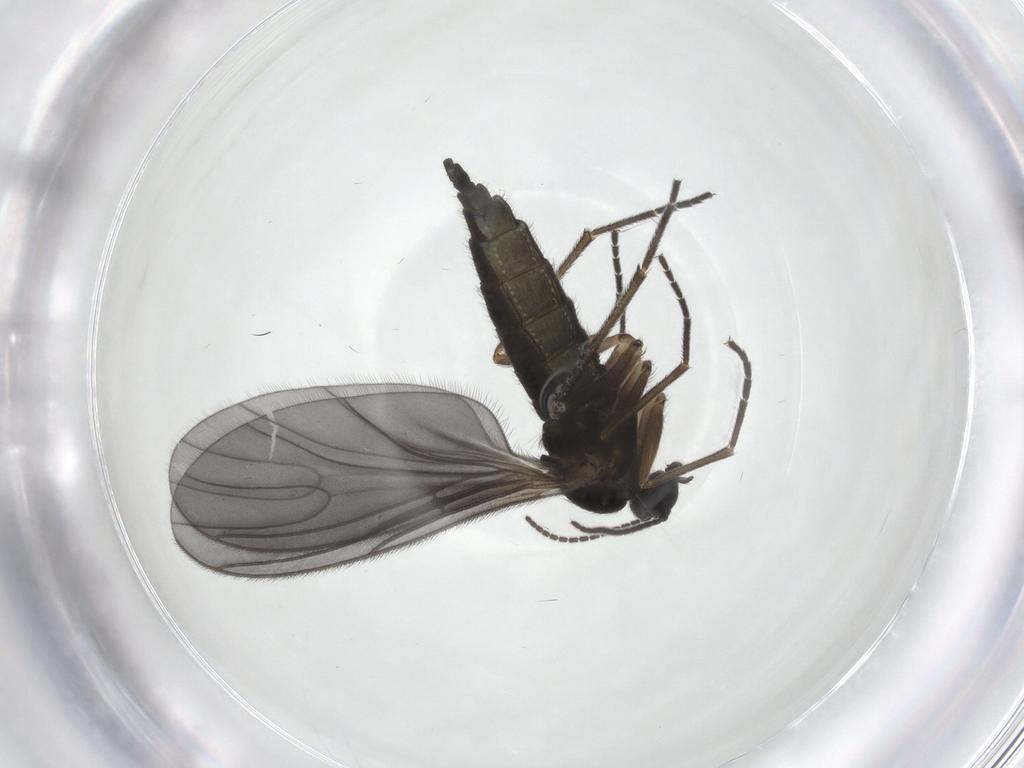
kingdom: Animalia
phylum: Arthropoda
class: Insecta
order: Diptera
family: Sciaridae
